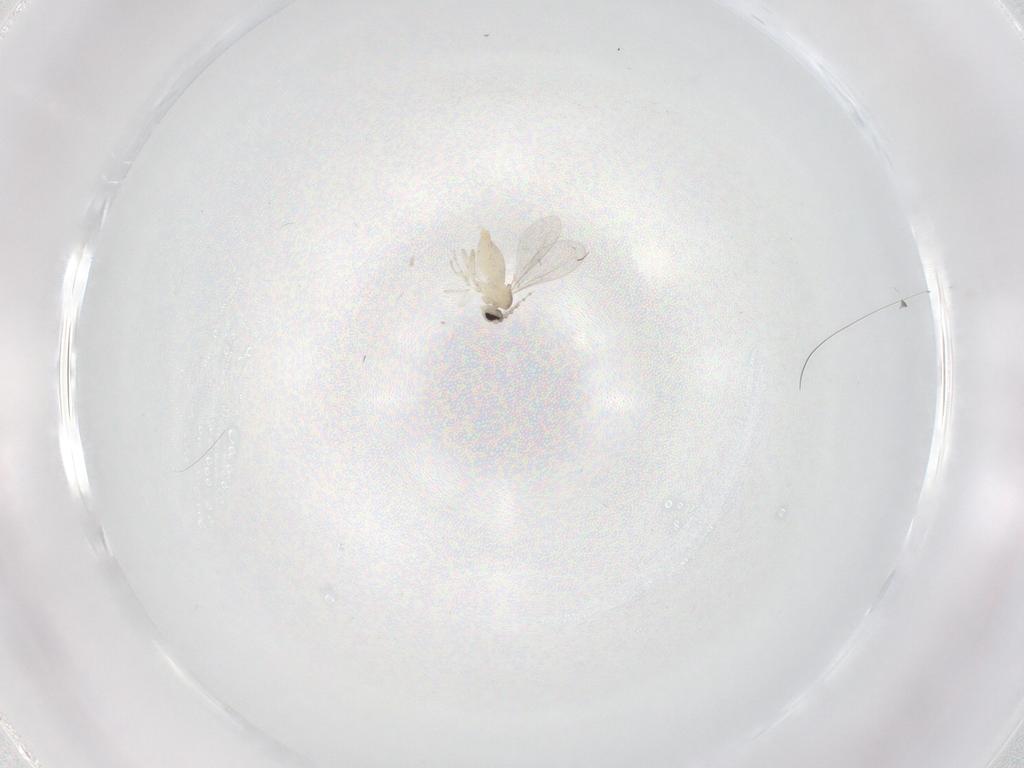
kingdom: Animalia
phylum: Arthropoda
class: Insecta
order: Diptera
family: Cecidomyiidae
